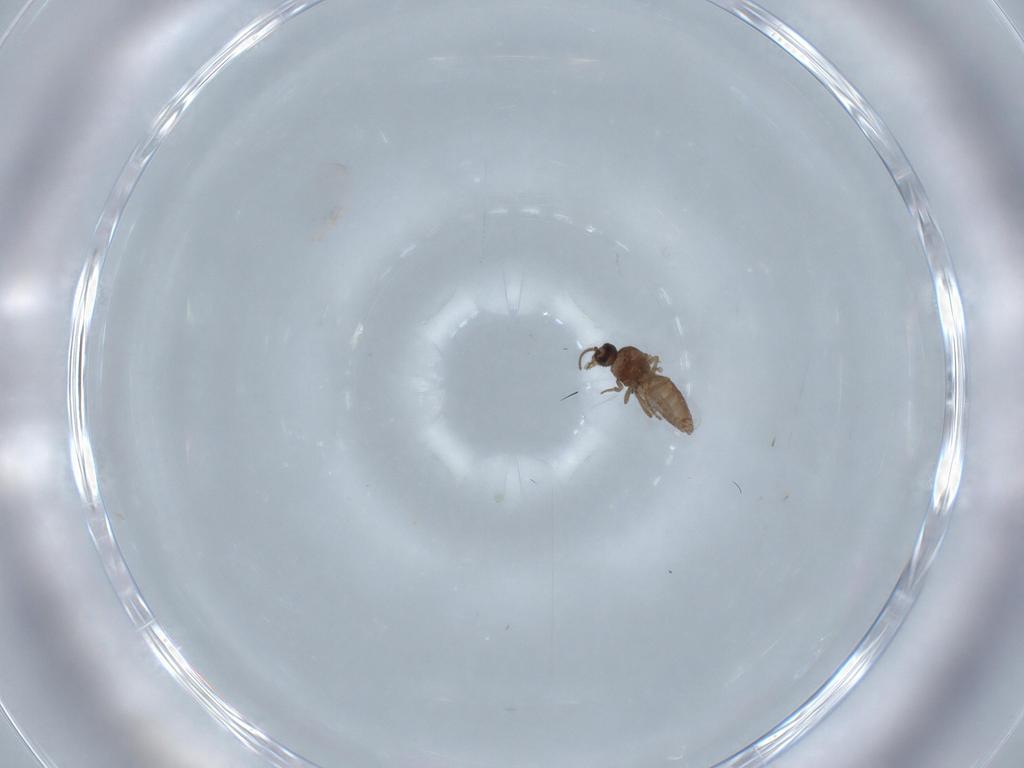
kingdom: Animalia
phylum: Arthropoda
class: Insecta
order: Diptera
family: Ceratopogonidae
